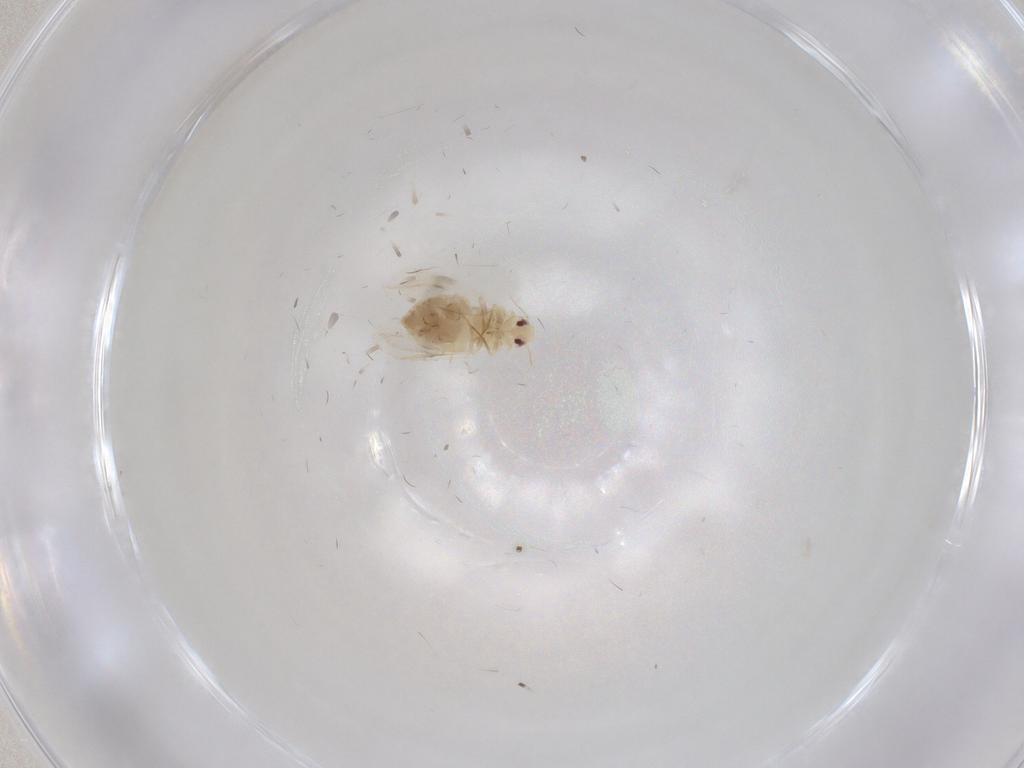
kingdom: Animalia
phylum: Arthropoda
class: Insecta
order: Hemiptera
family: Cicadellidae
